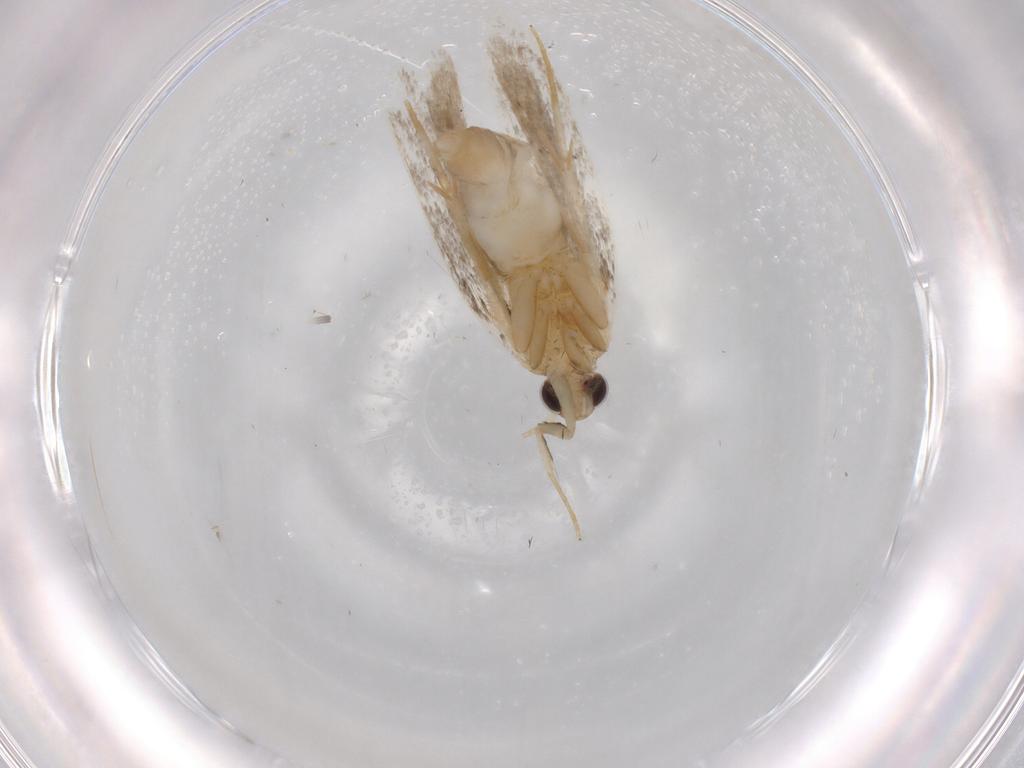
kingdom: Animalia
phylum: Arthropoda
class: Insecta
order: Lepidoptera
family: Autostichidae
